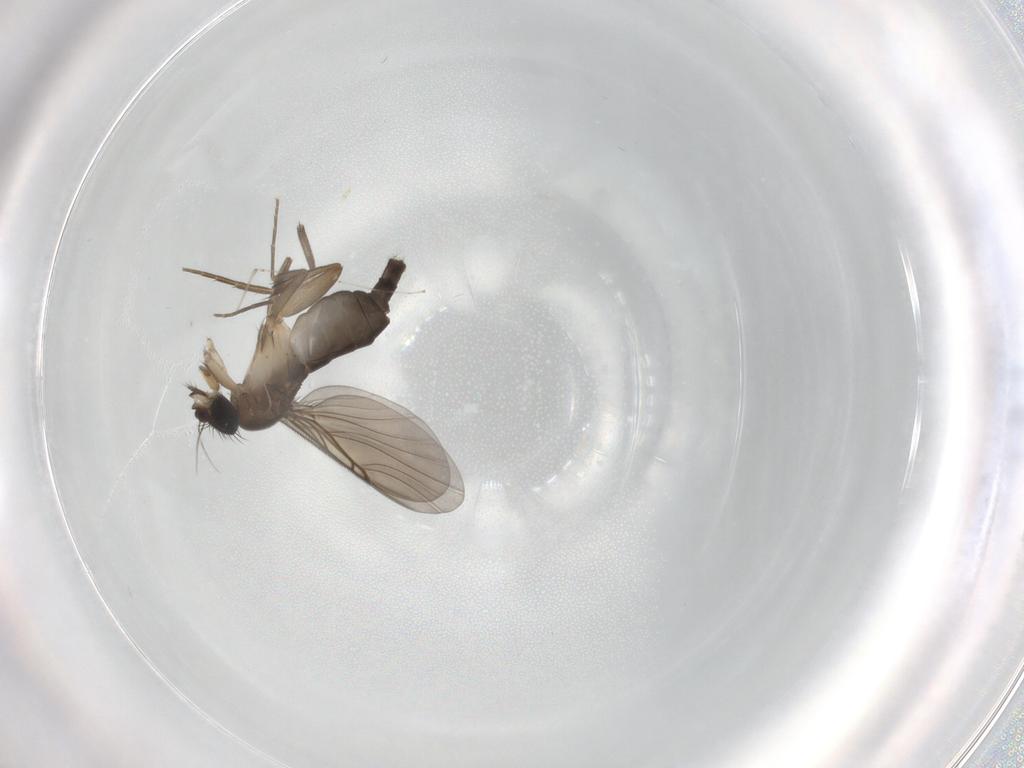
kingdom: Animalia
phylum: Arthropoda
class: Insecta
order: Diptera
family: Phoridae
